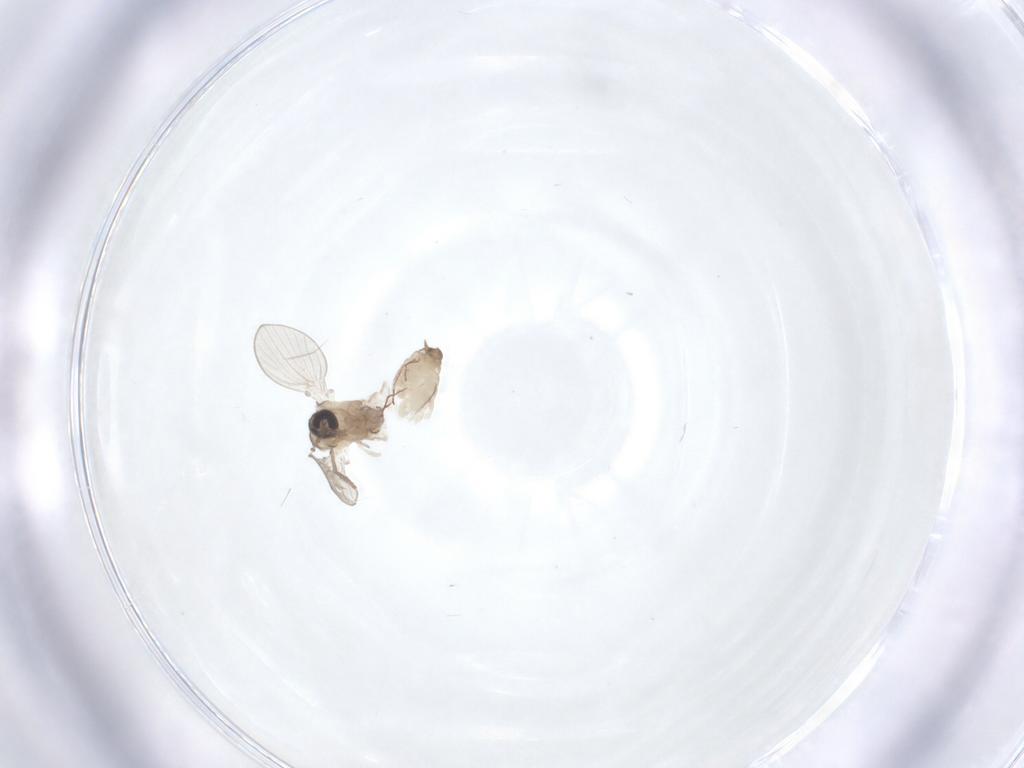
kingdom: Animalia
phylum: Arthropoda
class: Insecta
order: Diptera
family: Psychodidae
